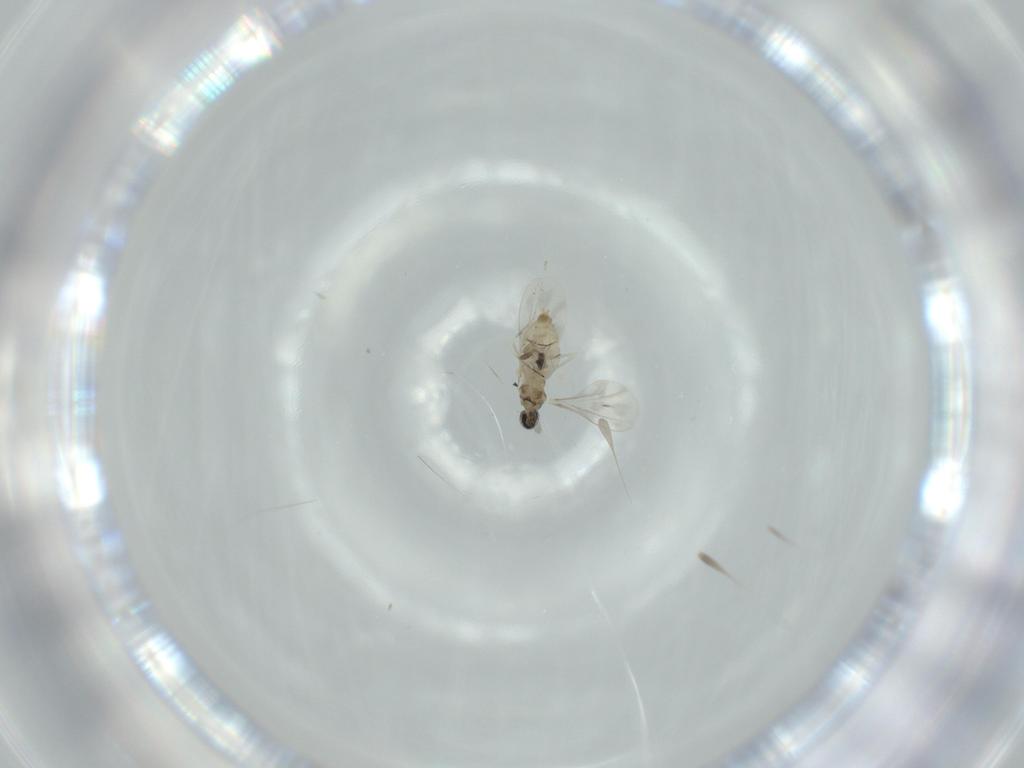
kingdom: Animalia
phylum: Arthropoda
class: Insecta
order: Diptera
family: Cecidomyiidae
